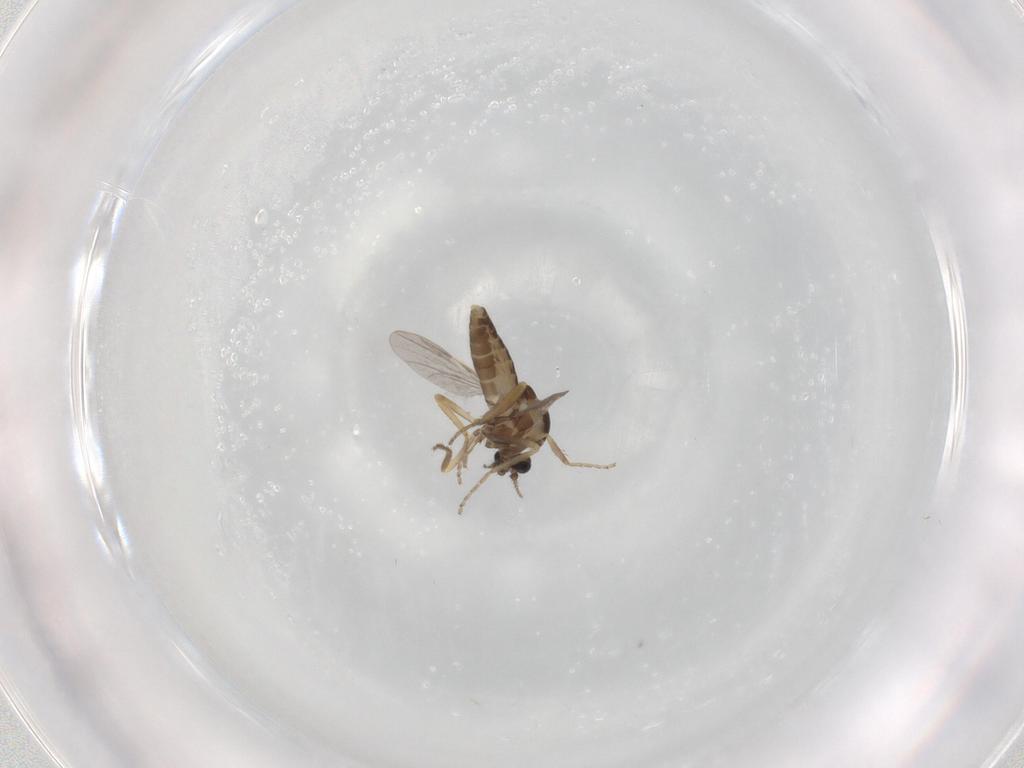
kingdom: Animalia
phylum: Arthropoda
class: Insecta
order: Diptera
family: Ceratopogonidae
